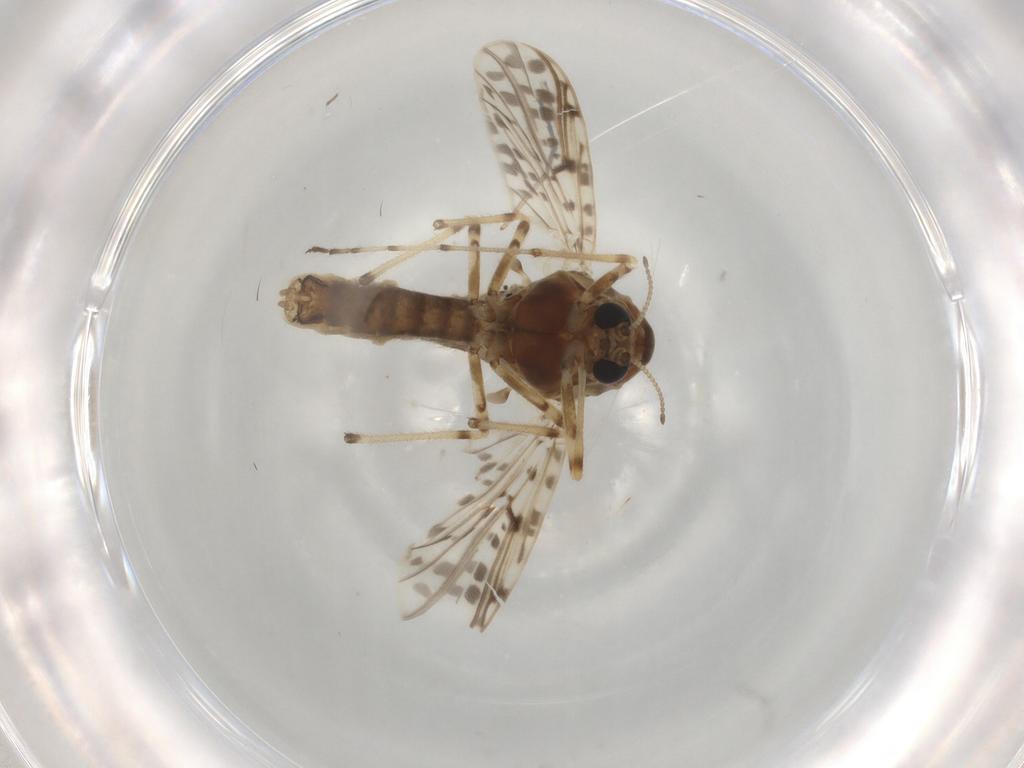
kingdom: Animalia
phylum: Arthropoda
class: Insecta
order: Diptera
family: Chironomidae
